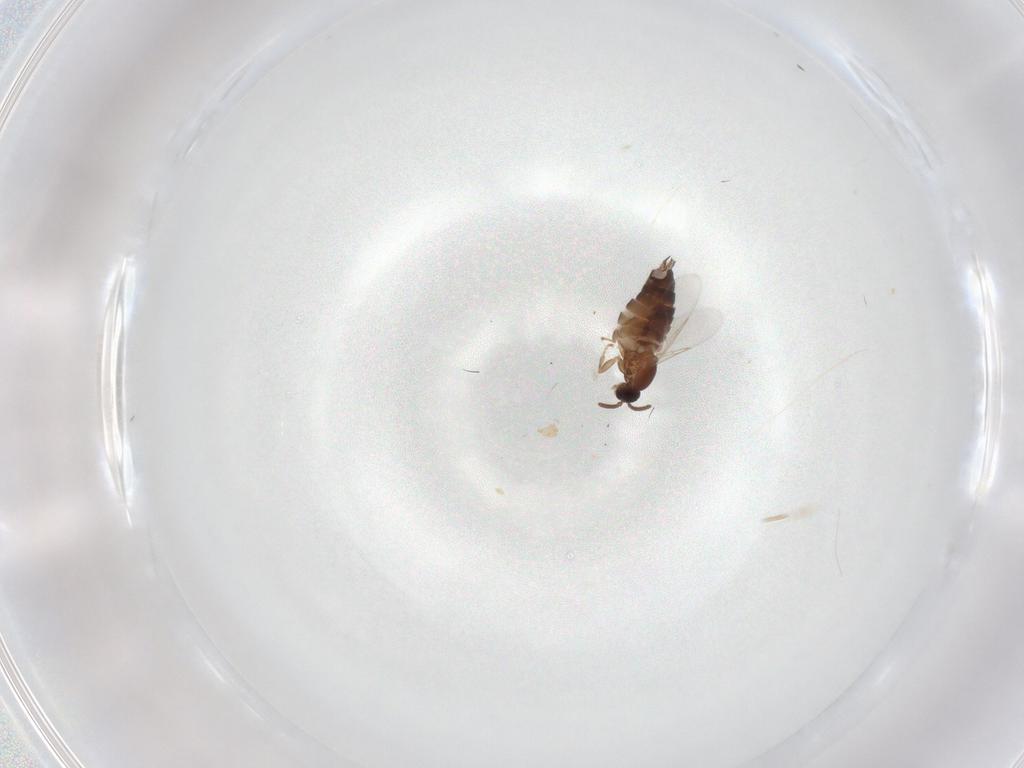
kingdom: Animalia
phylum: Arthropoda
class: Insecta
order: Diptera
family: Scatopsidae
